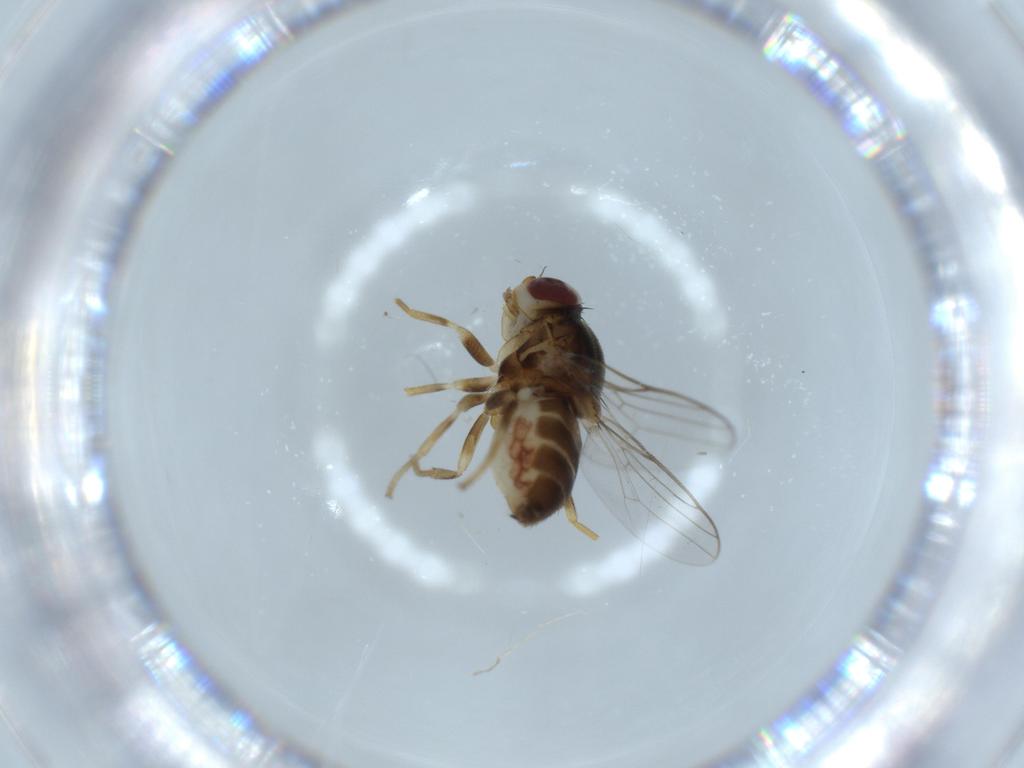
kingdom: Animalia
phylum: Arthropoda
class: Insecta
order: Diptera
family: Chloropidae
